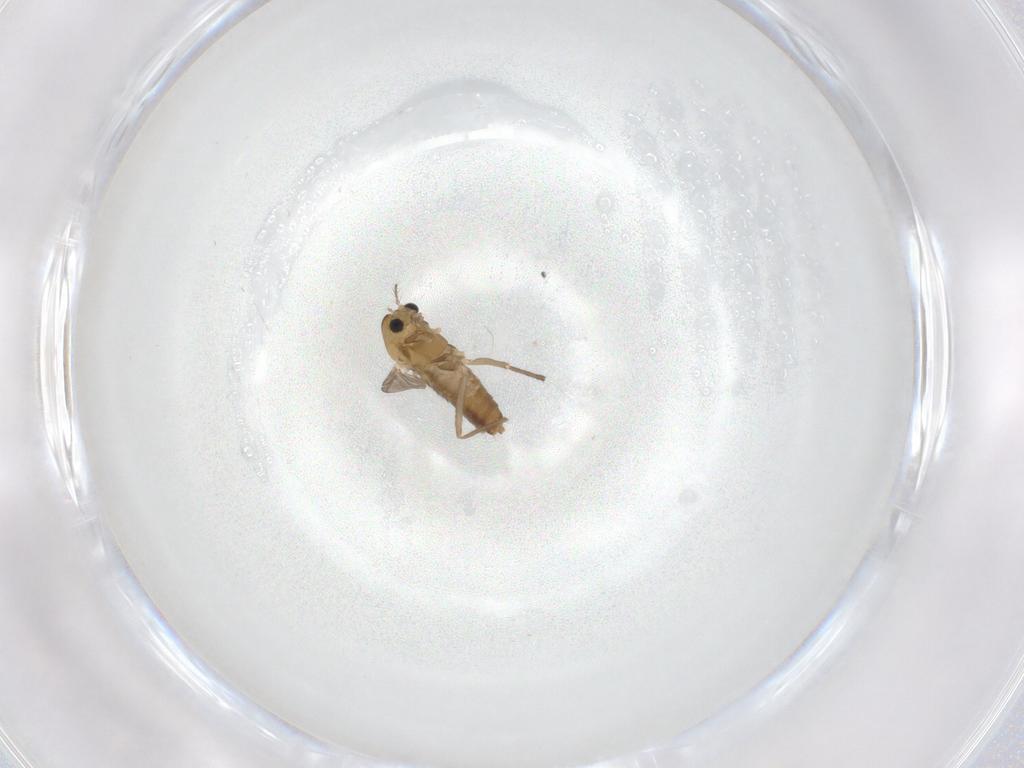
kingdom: Animalia
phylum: Arthropoda
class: Insecta
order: Diptera
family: Chironomidae
